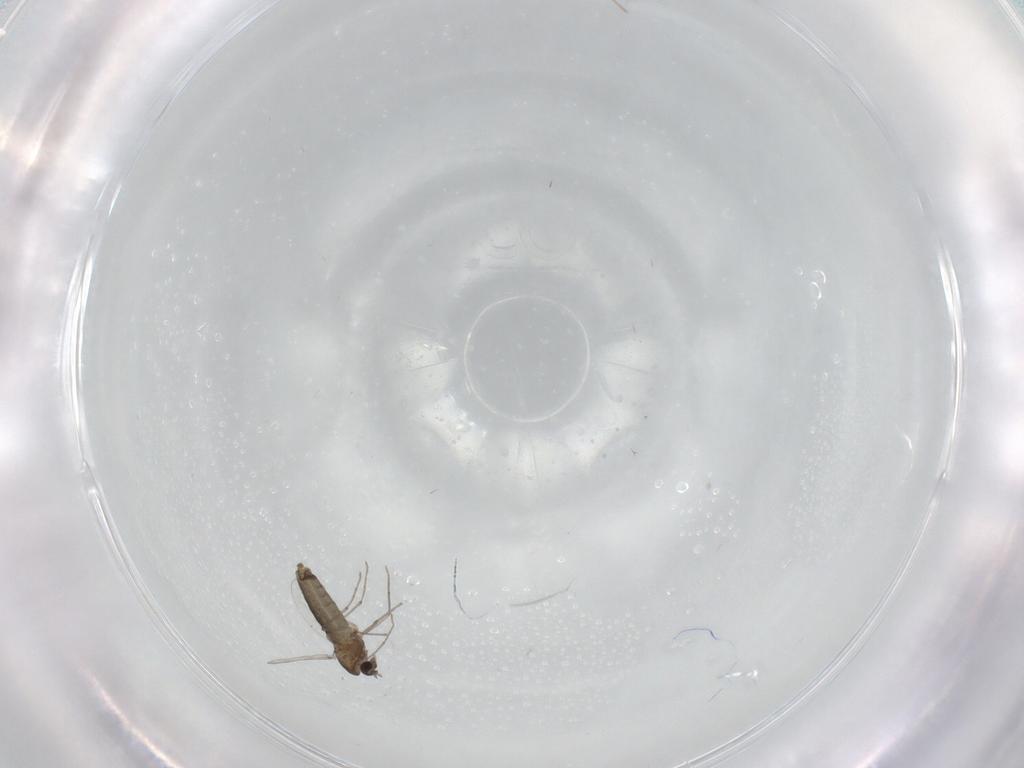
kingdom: Animalia
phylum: Arthropoda
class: Insecta
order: Diptera
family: Chironomidae
